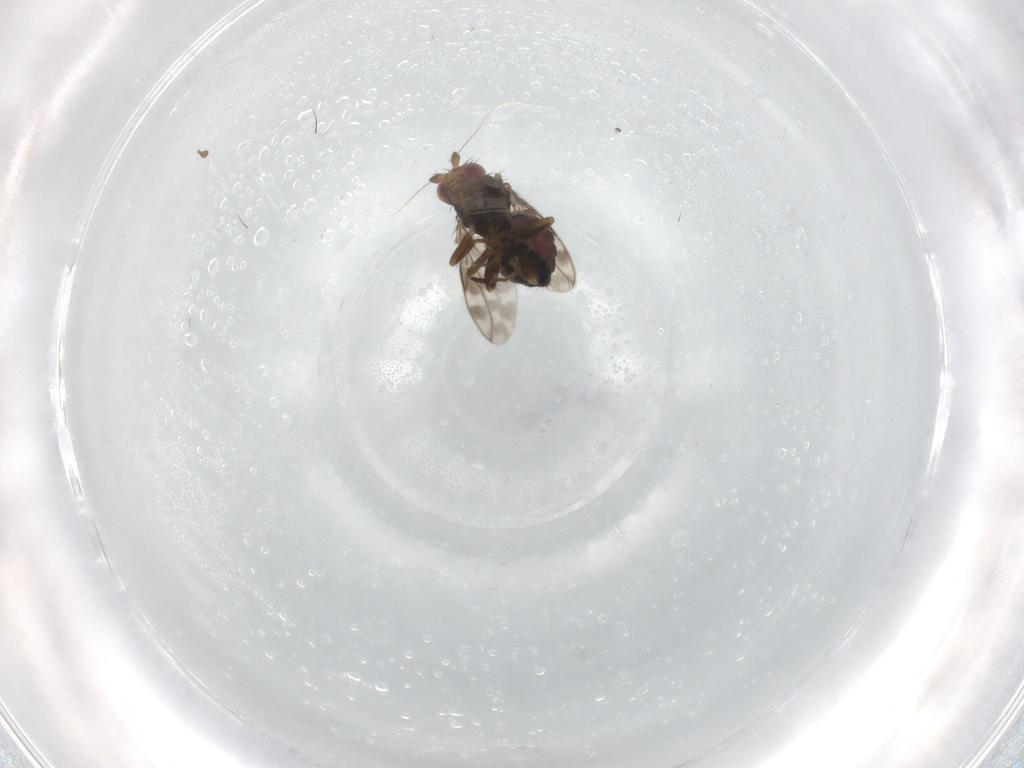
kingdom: Animalia
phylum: Arthropoda
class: Insecta
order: Diptera
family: Sphaeroceridae
